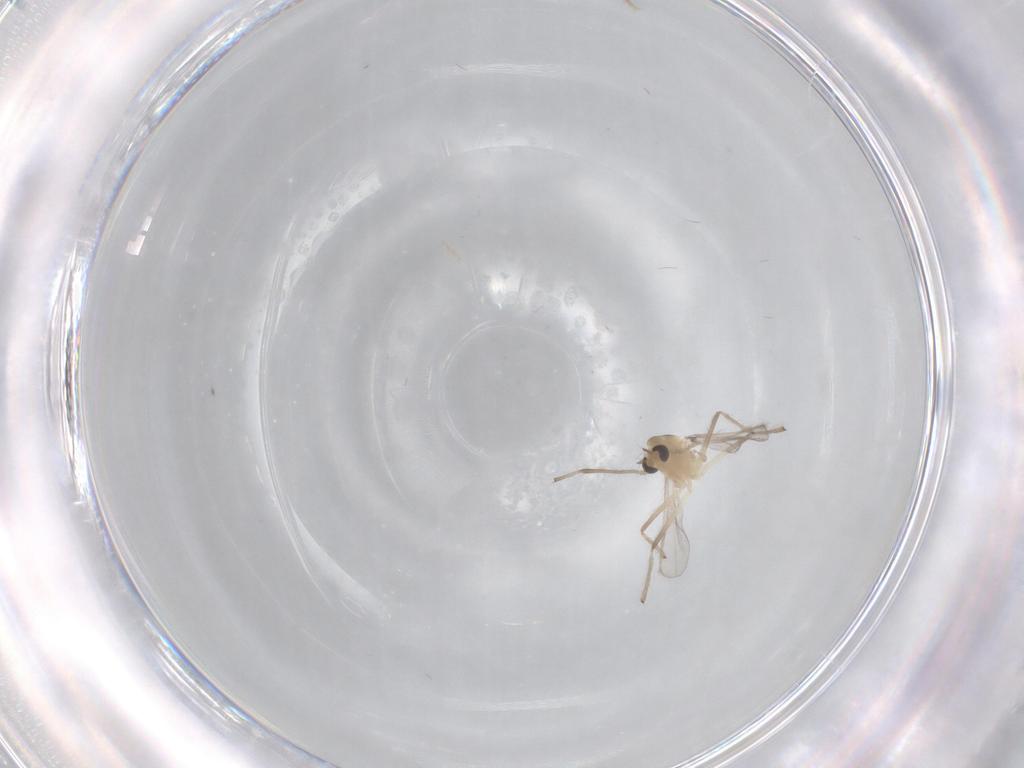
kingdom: Animalia
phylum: Arthropoda
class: Insecta
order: Diptera
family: Chironomidae
